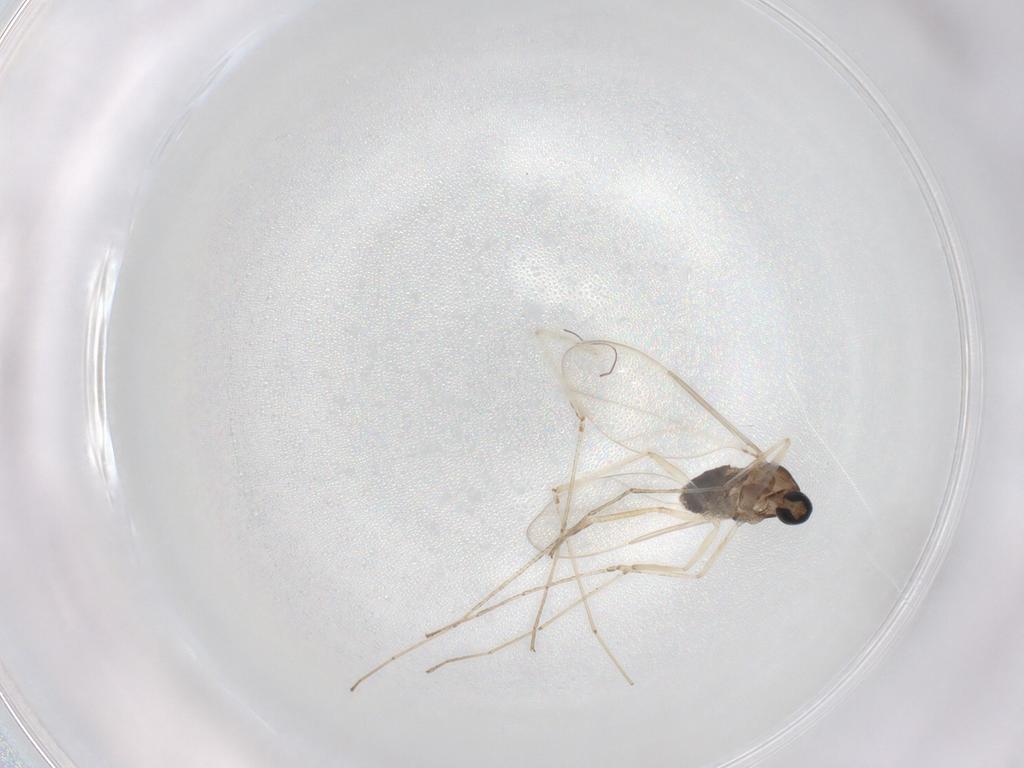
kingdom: Animalia
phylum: Arthropoda
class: Insecta
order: Diptera
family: Cecidomyiidae
